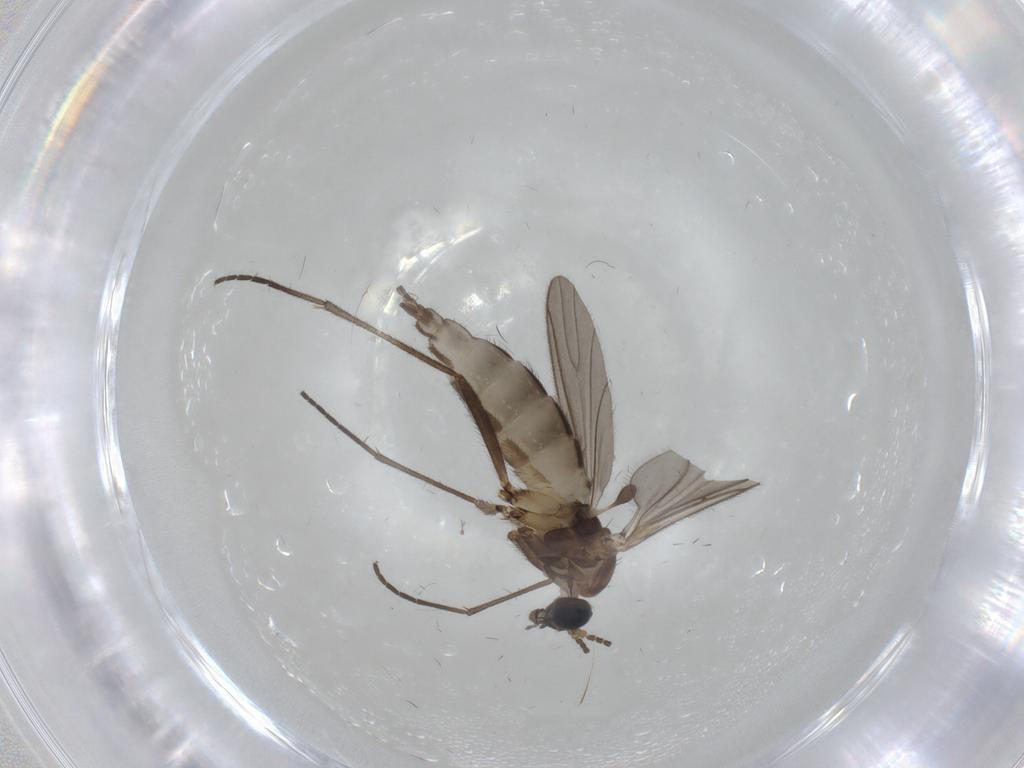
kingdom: Animalia
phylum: Arthropoda
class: Insecta
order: Diptera
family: Sciaridae
